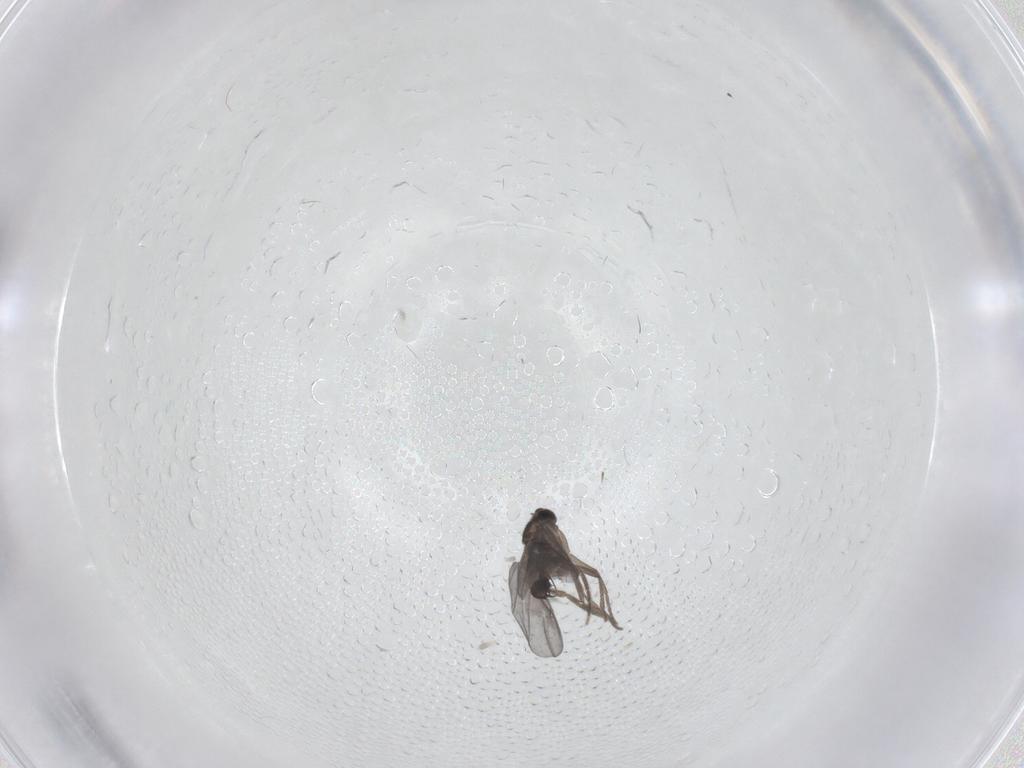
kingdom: Animalia
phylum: Arthropoda
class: Insecta
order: Diptera
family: Phoridae
